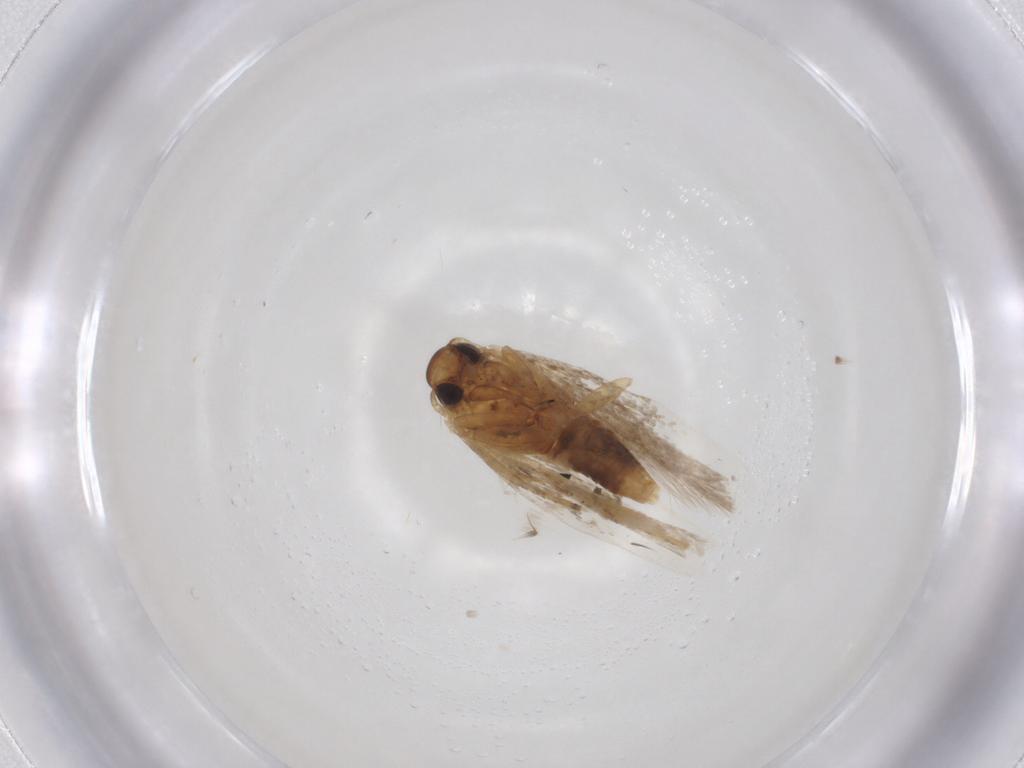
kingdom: Animalia
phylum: Arthropoda
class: Insecta
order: Lepidoptera
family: Gelechiidae
